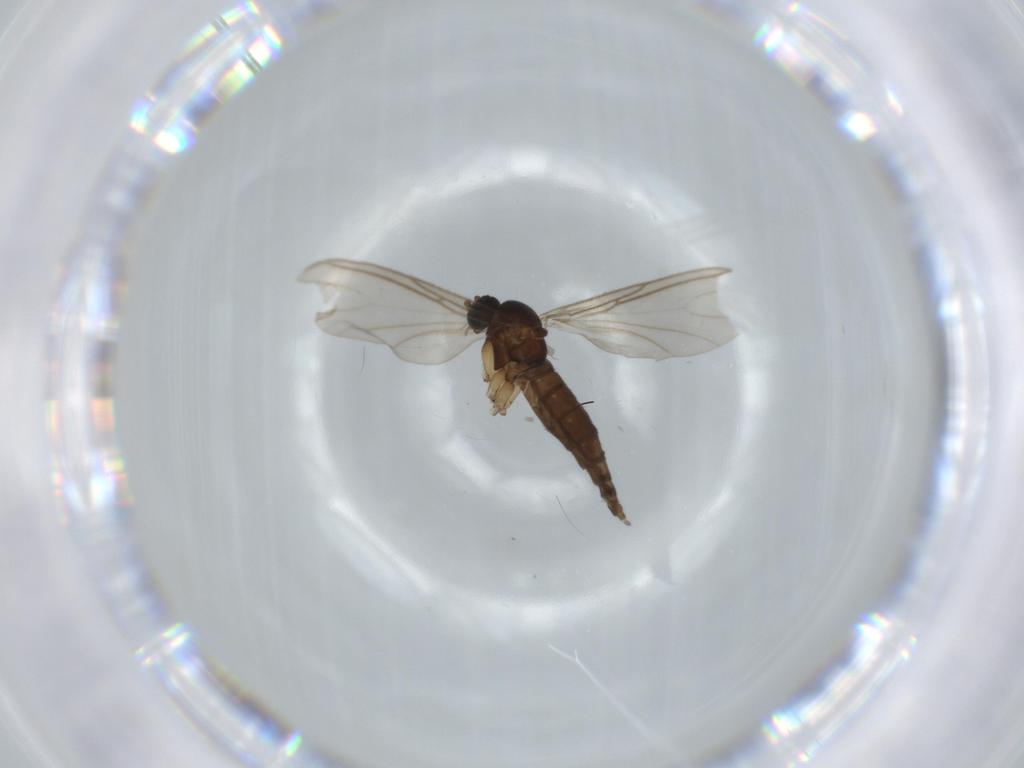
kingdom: Animalia
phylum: Arthropoda
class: Insecta
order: Diptera
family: Sciaridae
